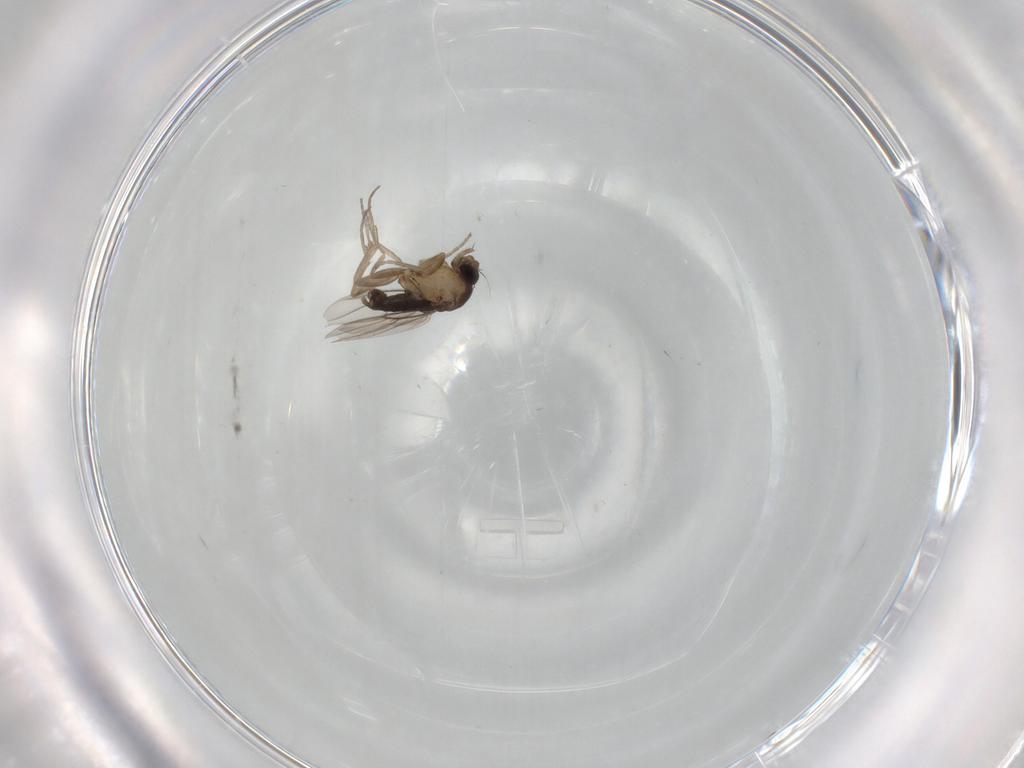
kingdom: Animalia
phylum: Arthropoda
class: Insecta
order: Diptera
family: Phoridae
